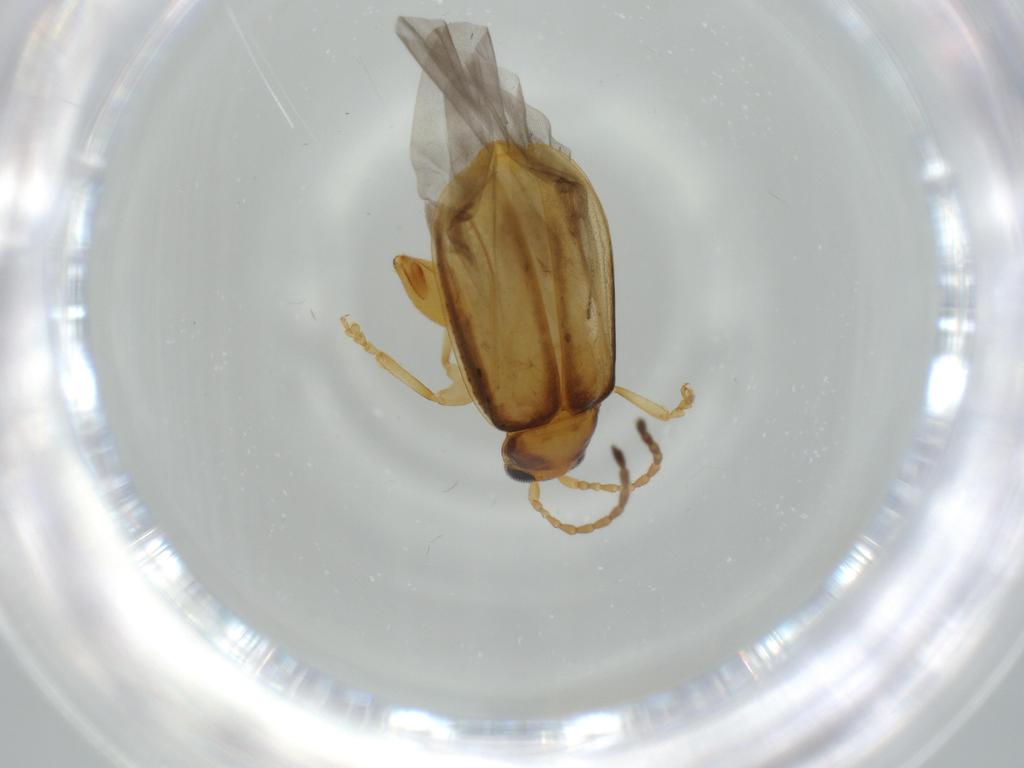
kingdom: Animalia
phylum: Arthropoda
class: Insecta
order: Coleoptera
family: Chrysomelidae
